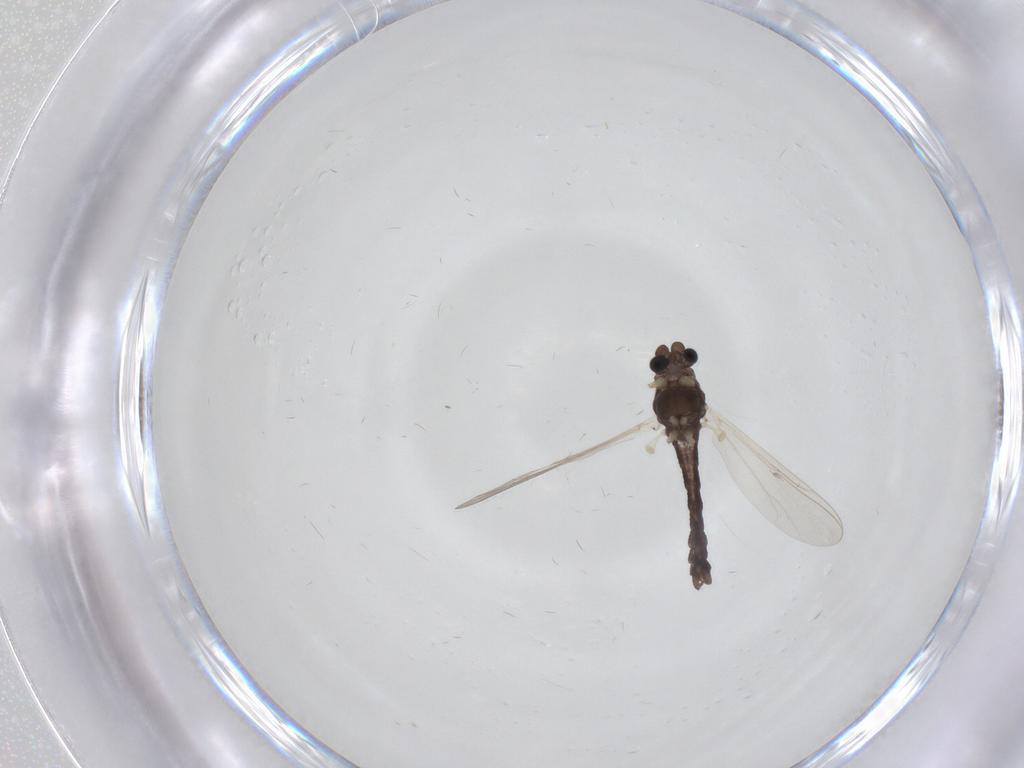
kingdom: Animalia
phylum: Arthropoda
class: Insecta
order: Diptera
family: Chironomidae
